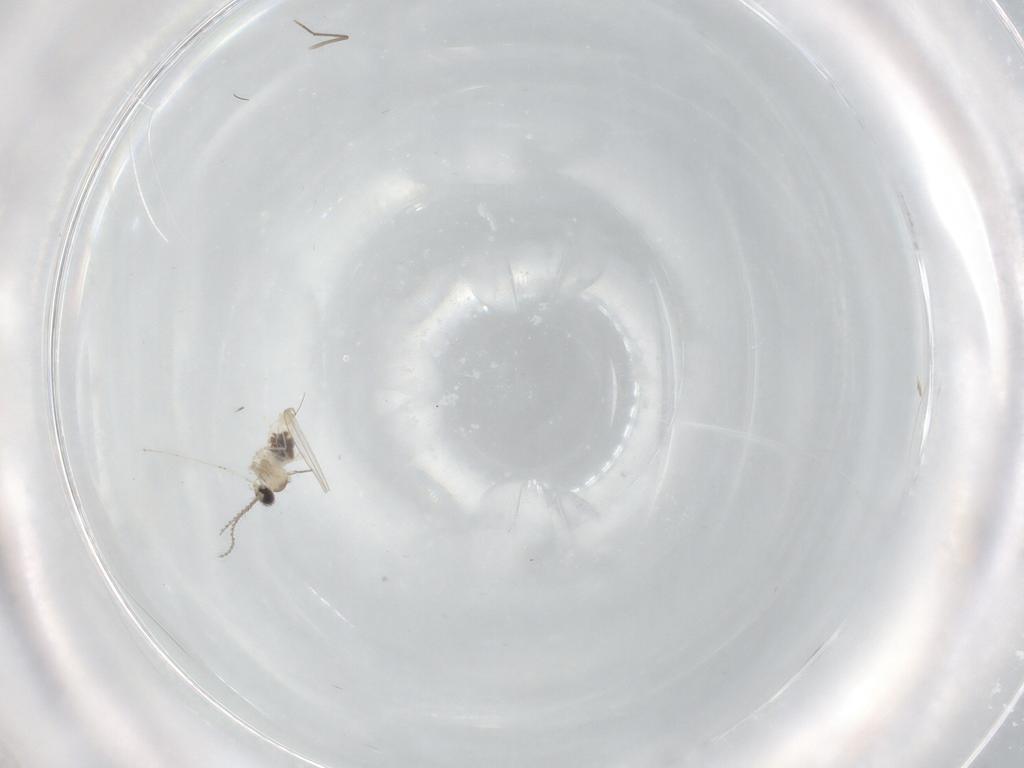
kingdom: Animalia
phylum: Arthropoda
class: Insecta
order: Diptera
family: Cecidomyiidae
